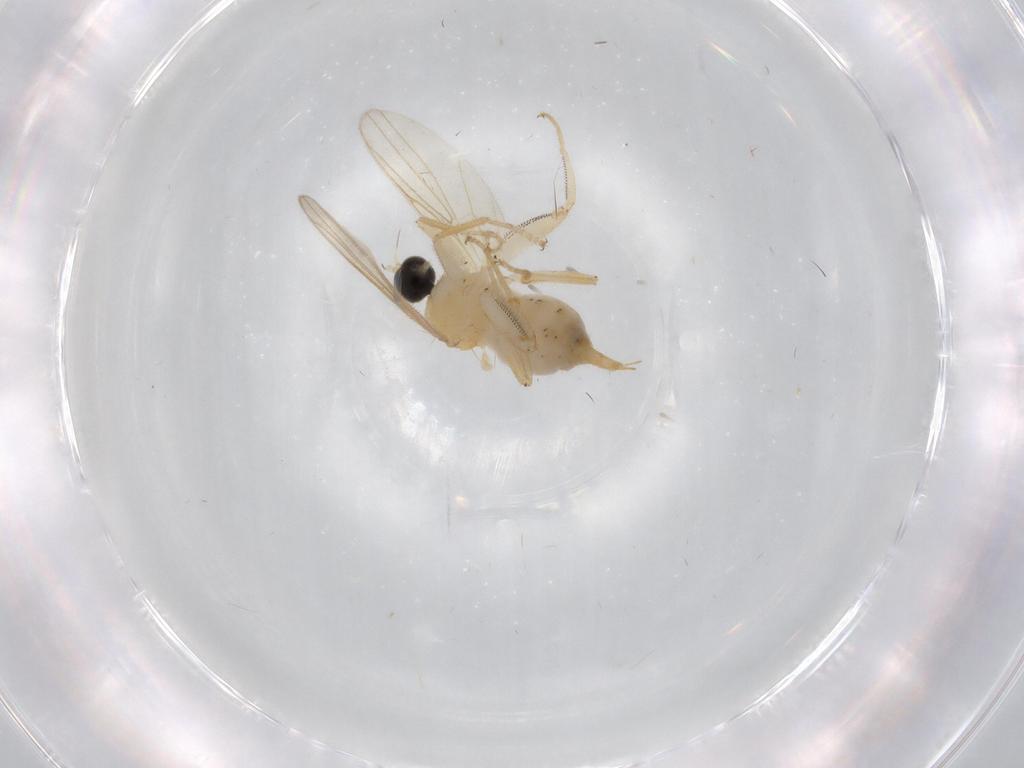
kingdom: Animalia
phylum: Arthropoda
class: Insecta
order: Diptera
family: Hybotidae
